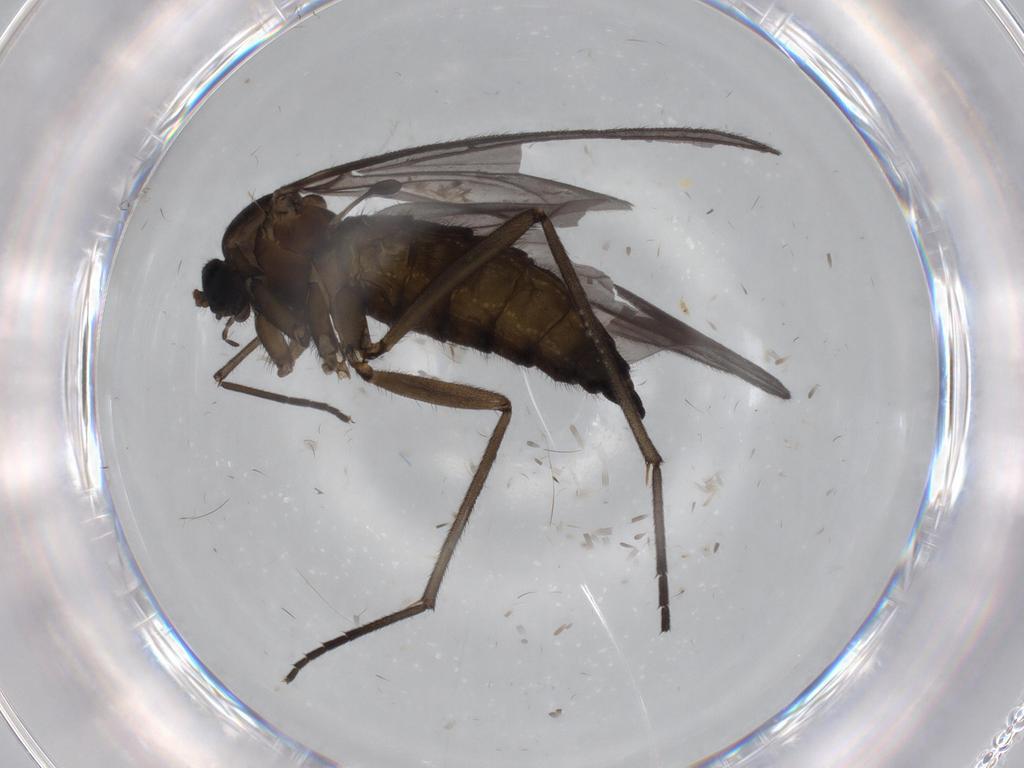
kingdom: Animalia
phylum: Arthropoda
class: Insecta
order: Diptera
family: Sciaridae
